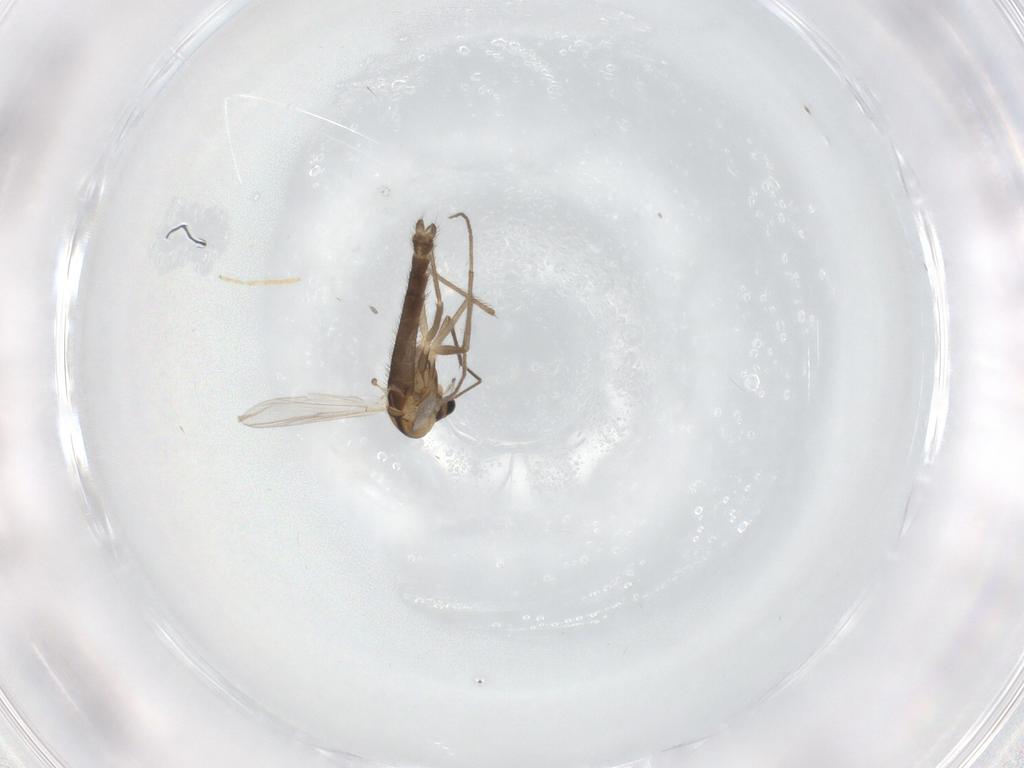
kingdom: Animalia
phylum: Arthropoda
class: Insecta
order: Diptera
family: Chironomidae
